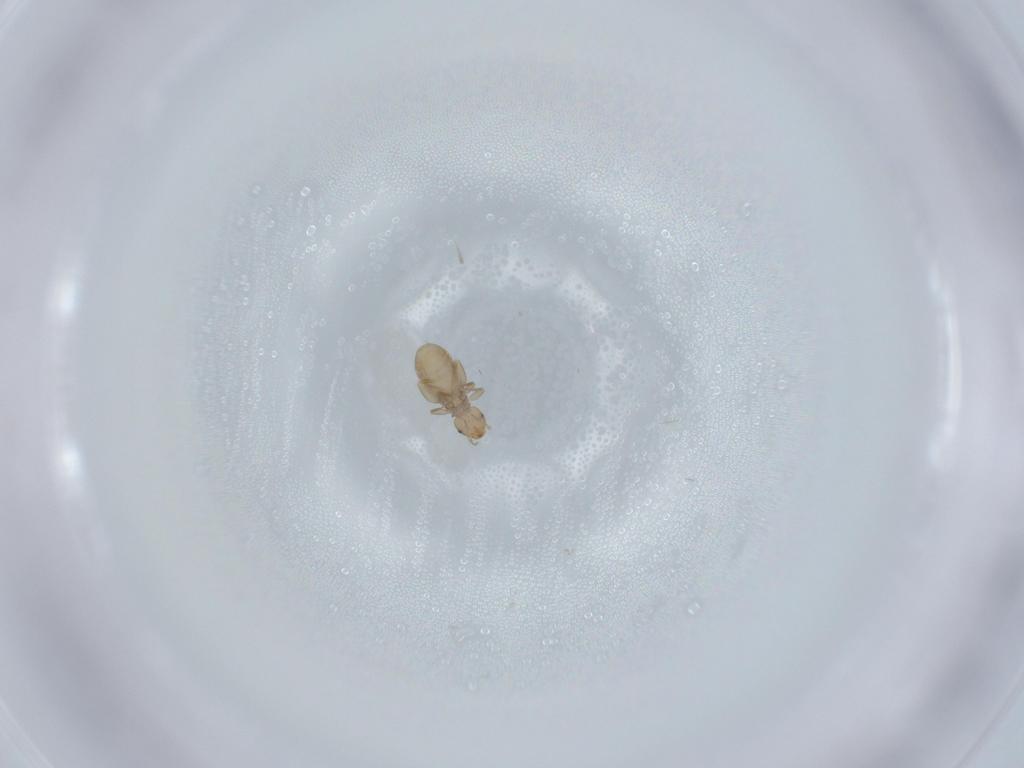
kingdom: Animalia
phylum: Arthropoda
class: Insecta
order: Psocodea
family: Liposcelididae
